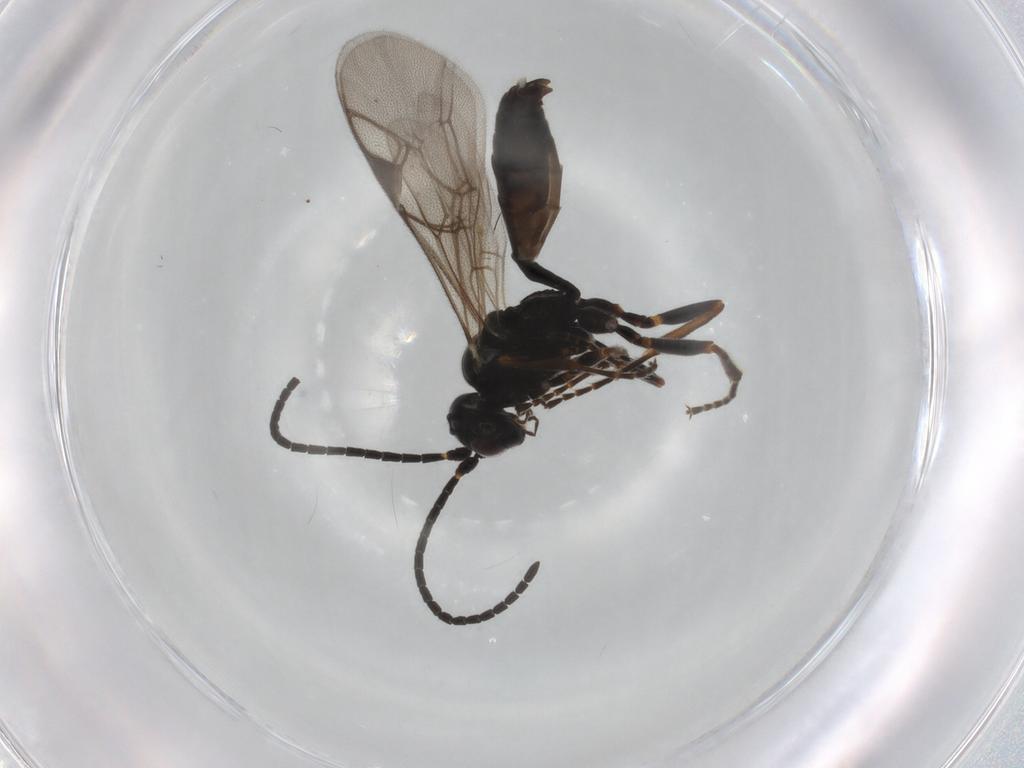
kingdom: Animalia
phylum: Arthropoda
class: Insecta
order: Hymenoptera
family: Ichneumonidae
